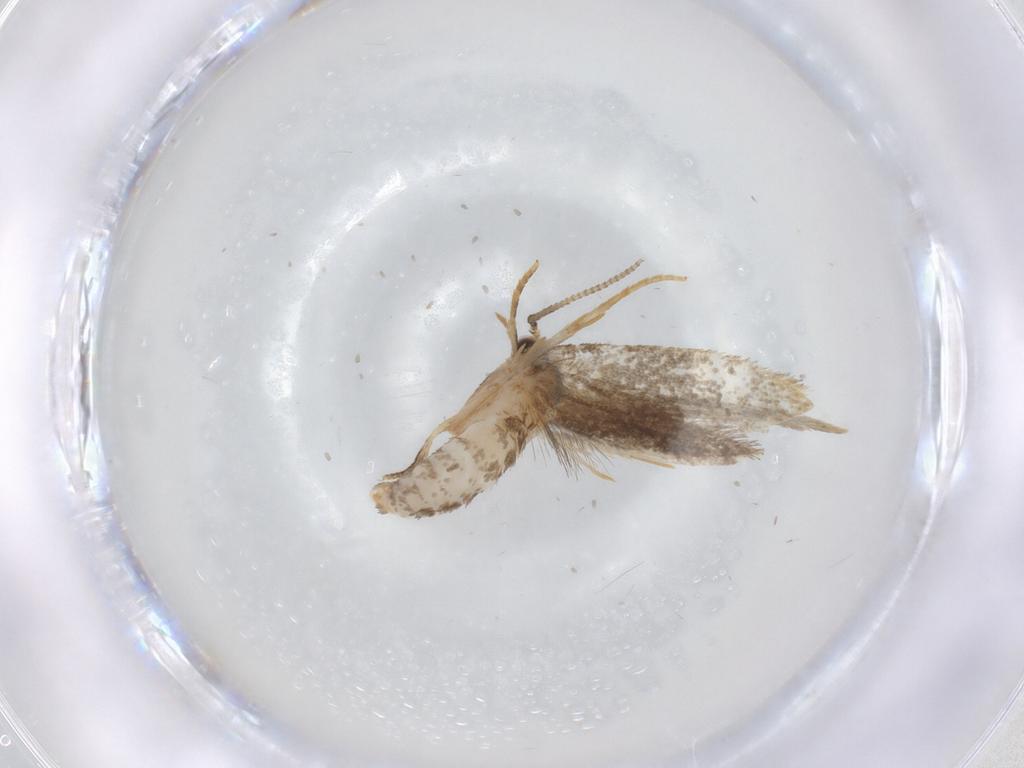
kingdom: Animalia
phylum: Arthropoda
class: Insecta
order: Lepidoptera
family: Tineidae
